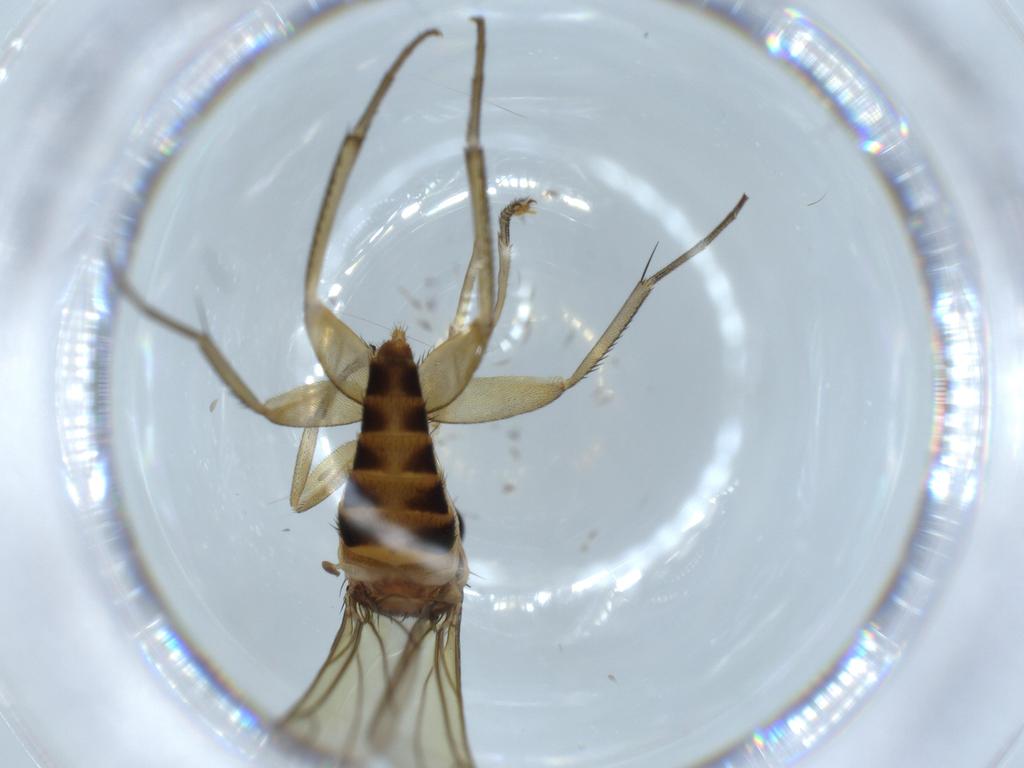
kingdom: Animalia
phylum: Arthropoda
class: Insecta
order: Diptera
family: Phoridae
